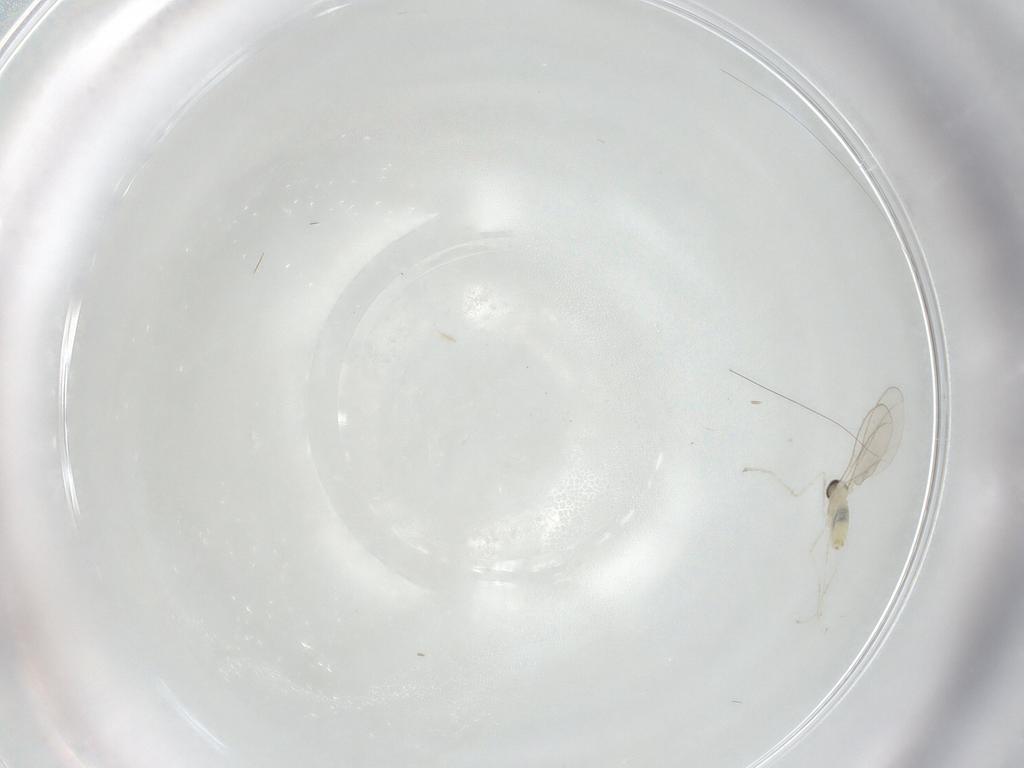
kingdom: Animalia
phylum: Arthropoda
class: Insecta
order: Diptera
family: Cecidomyiidae
